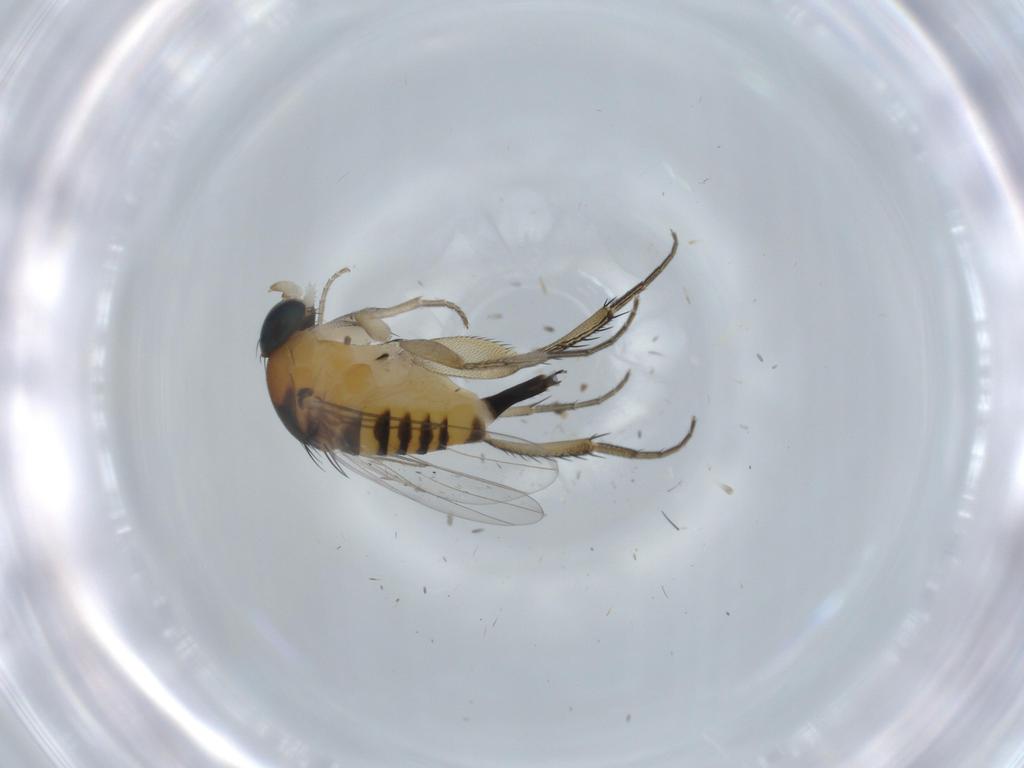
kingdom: Animalia
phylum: Arthropoda
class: Insecta
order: Diptera
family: Phoridae
